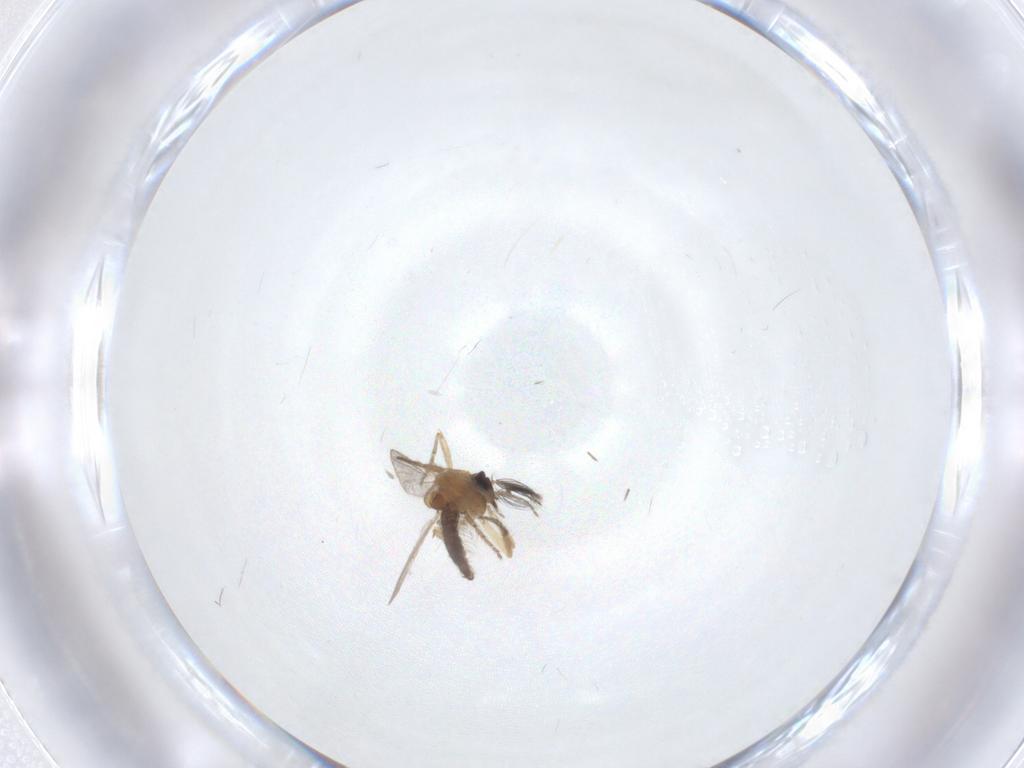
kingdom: Animalia
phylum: Arthropoda
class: Insecta
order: Diptera
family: Ceratopogonidae
